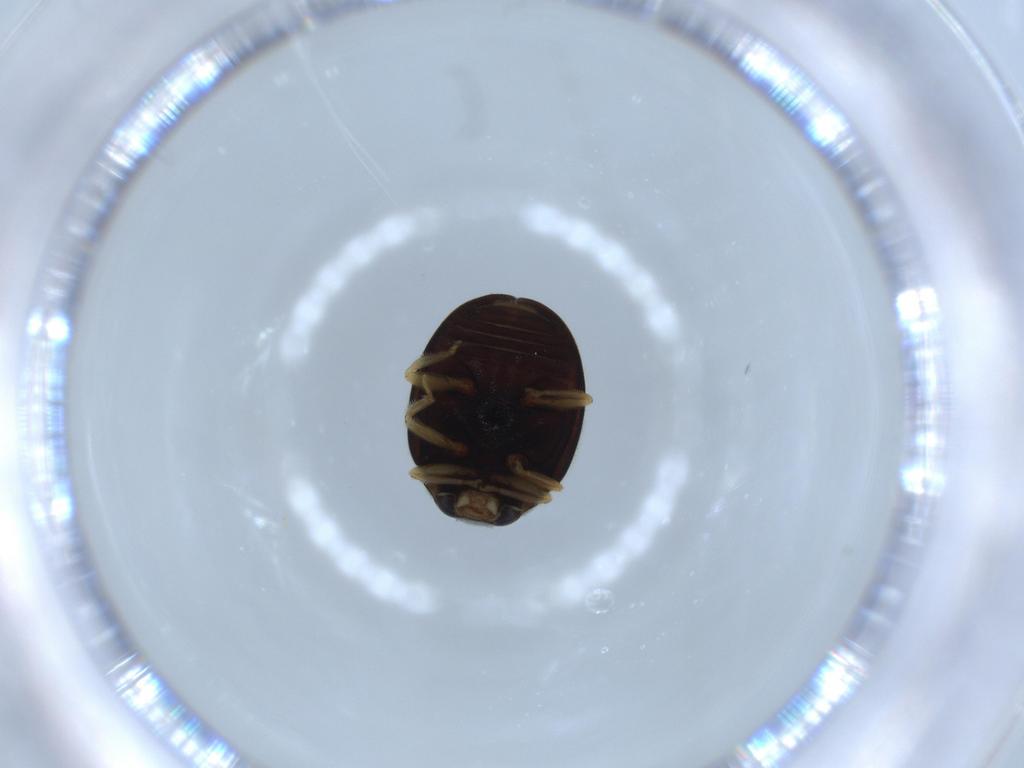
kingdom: Animalia
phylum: Arthropoda
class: Insecta
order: Coleoptera
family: Coccinellidae
